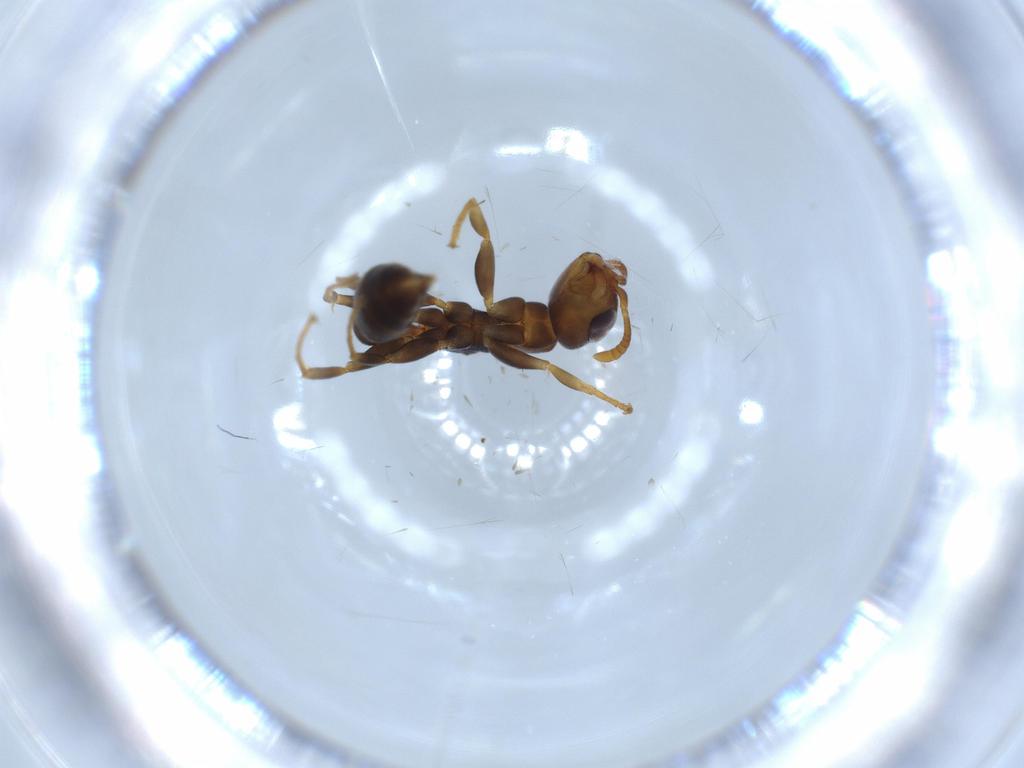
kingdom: Animalia
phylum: Arthropoda
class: Insecta
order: Hymenoptera
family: Formicidae
